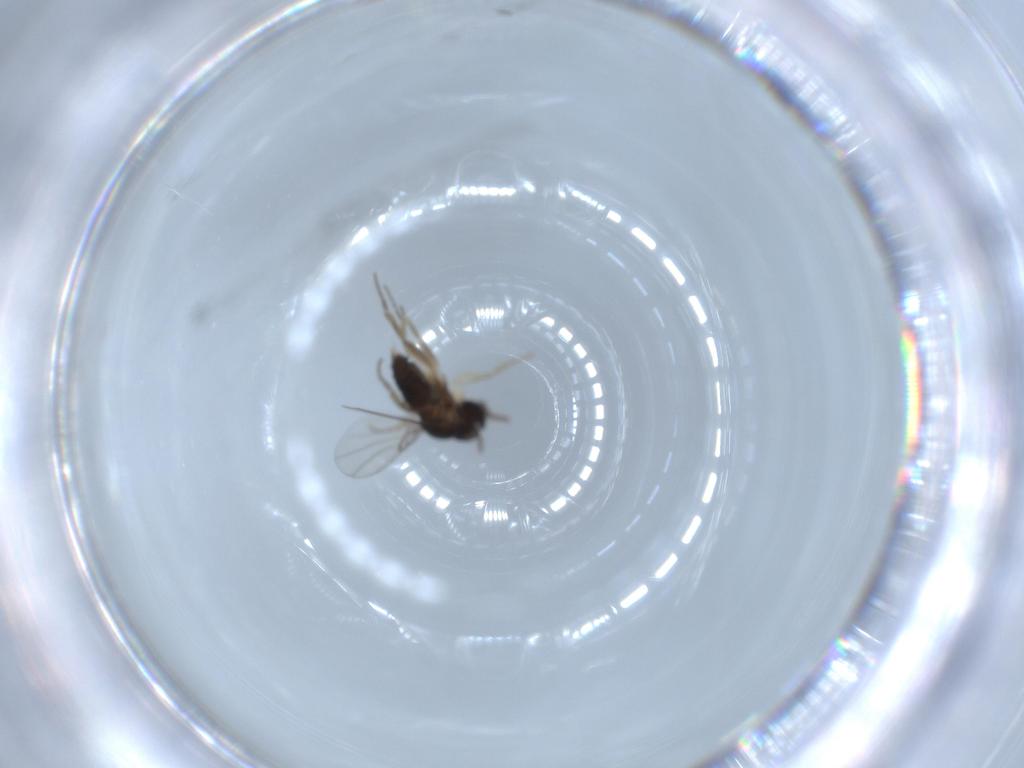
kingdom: Animalia
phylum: Arthropoda
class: Insecta
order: Diptera
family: Phoridae
